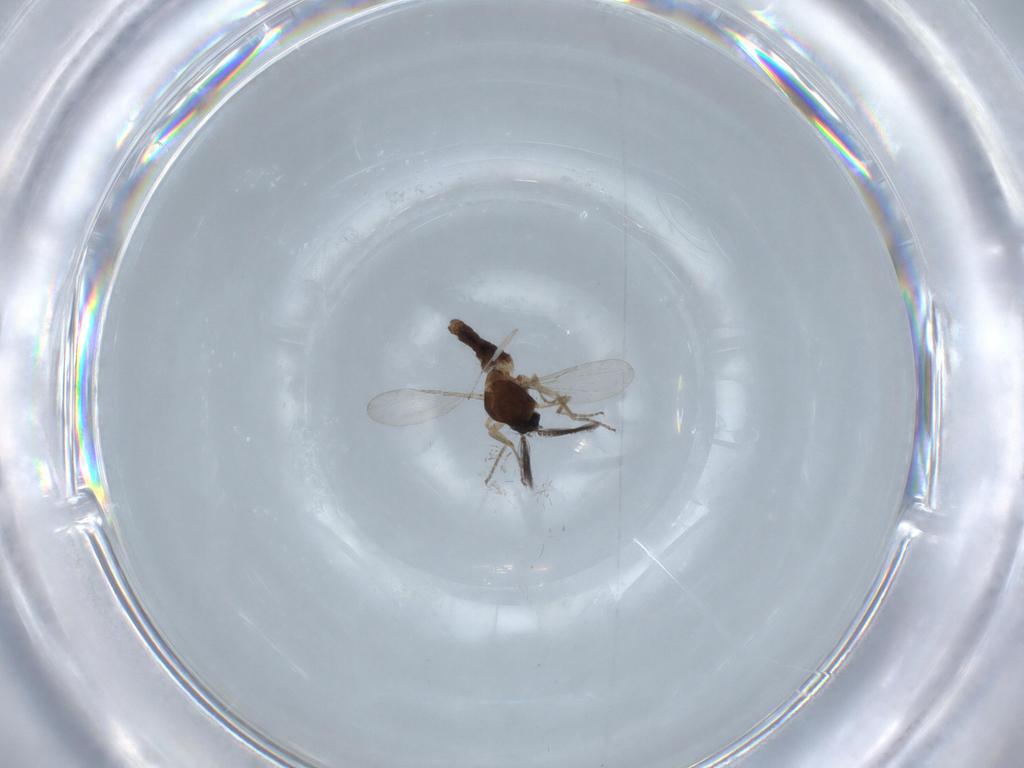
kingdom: Animalia
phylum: Arthropoda
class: Insecta
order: Diptera
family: Ceratopogonidae
